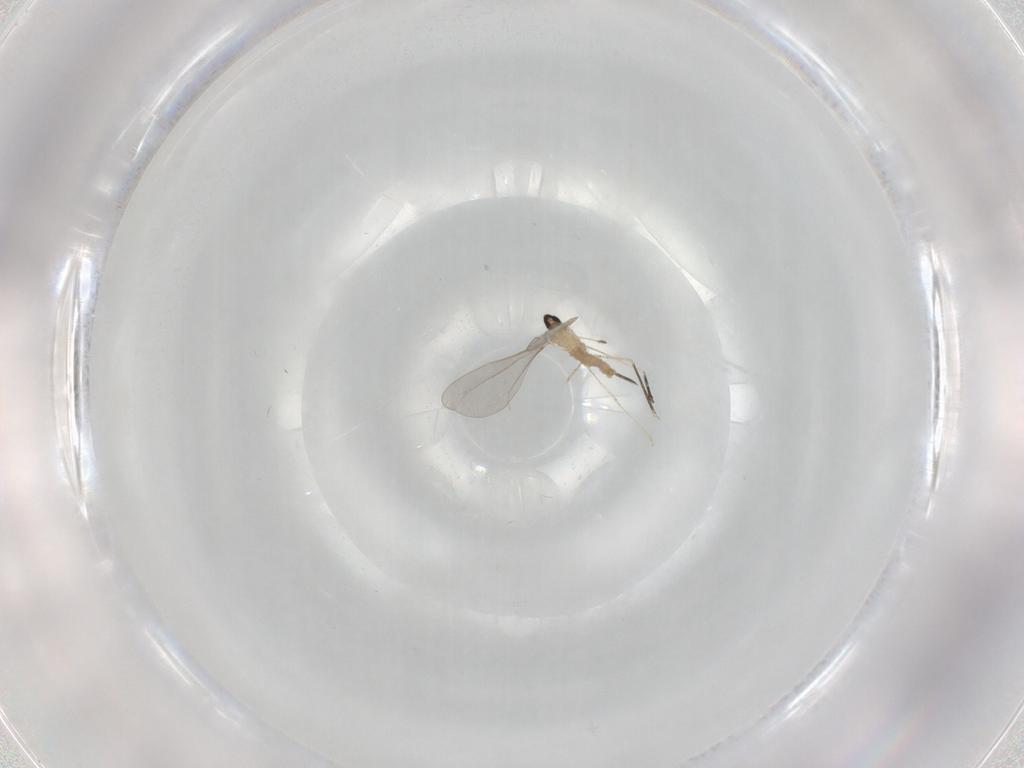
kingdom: Animalia
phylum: Arthropoda
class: Insecta
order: Diptera
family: Cecidomyiidae
